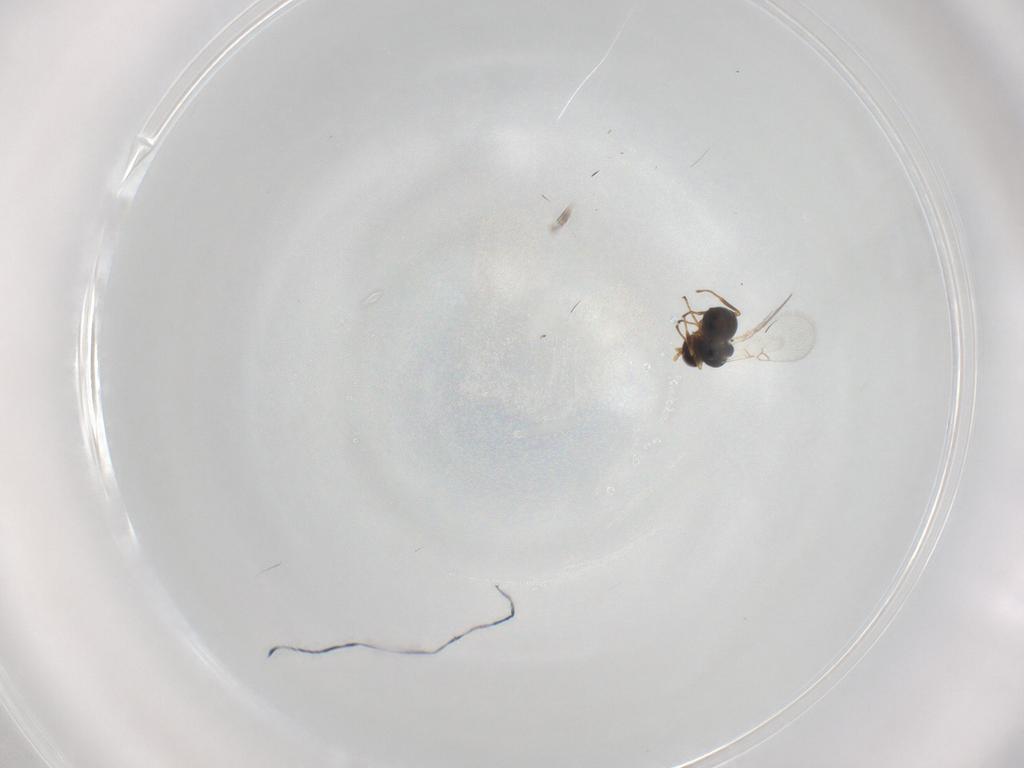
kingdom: Animalia
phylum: Arthropoda
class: Insecta
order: Hymenoptera
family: Figitidae
